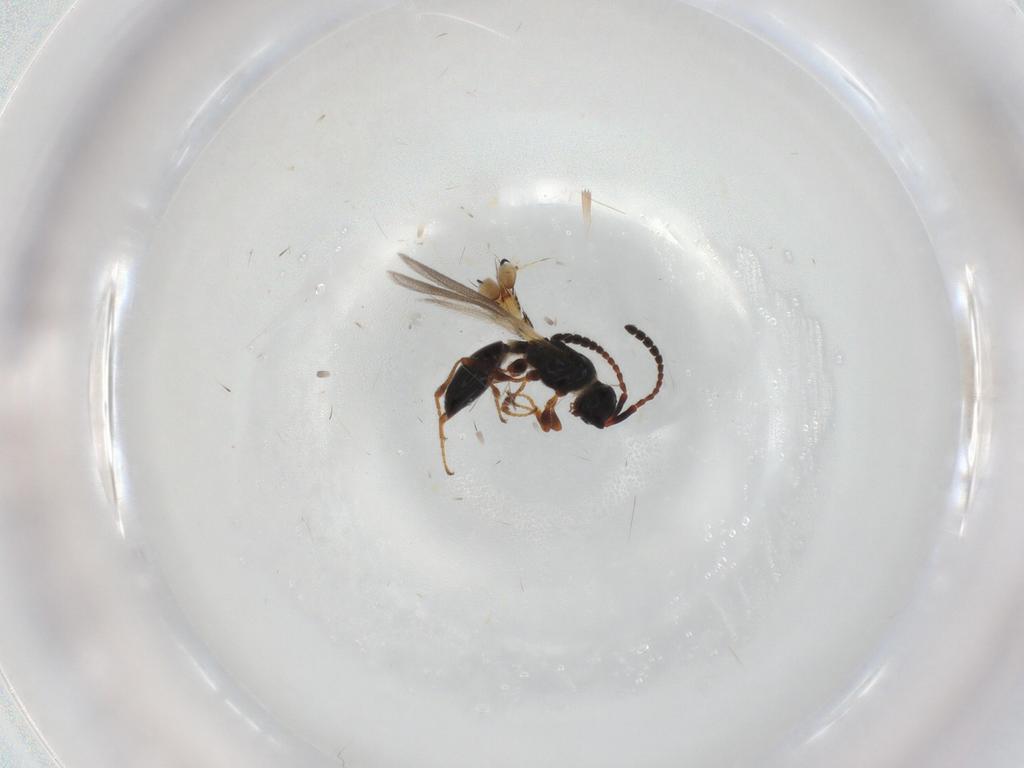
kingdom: Animalia
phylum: Arthropoda
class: Insecta
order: Hymenoptera
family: Diapriidae
